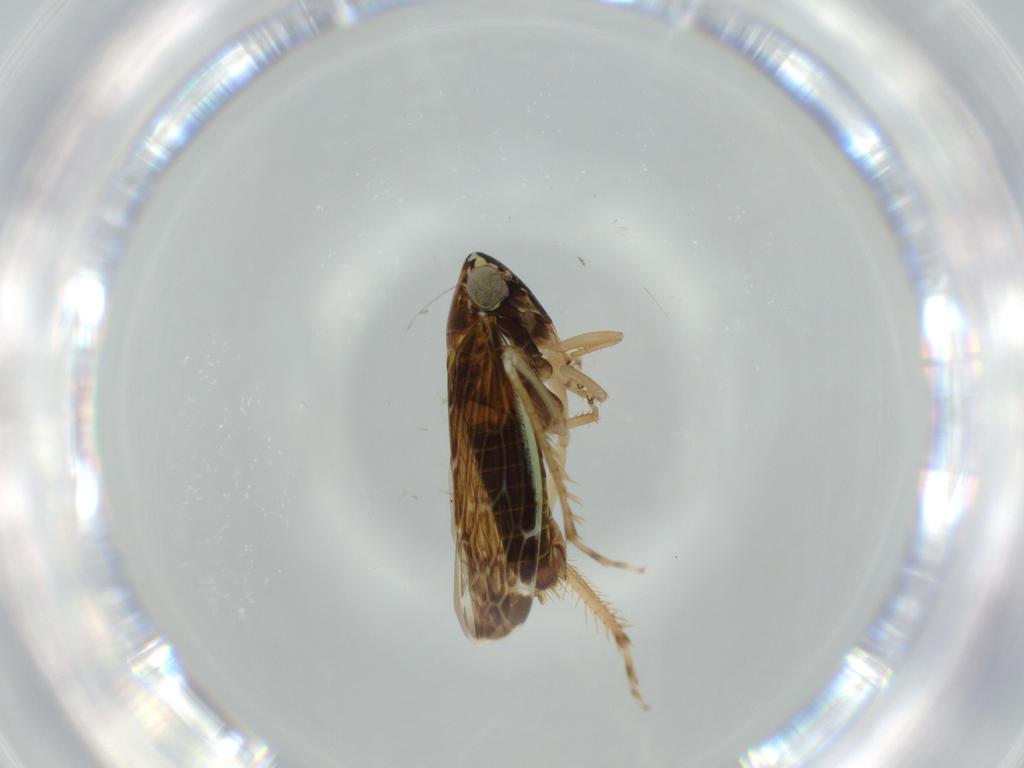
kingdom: Animalia
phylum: Arthropoda
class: Insecta
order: Hemiptera
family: Cicadellidae
